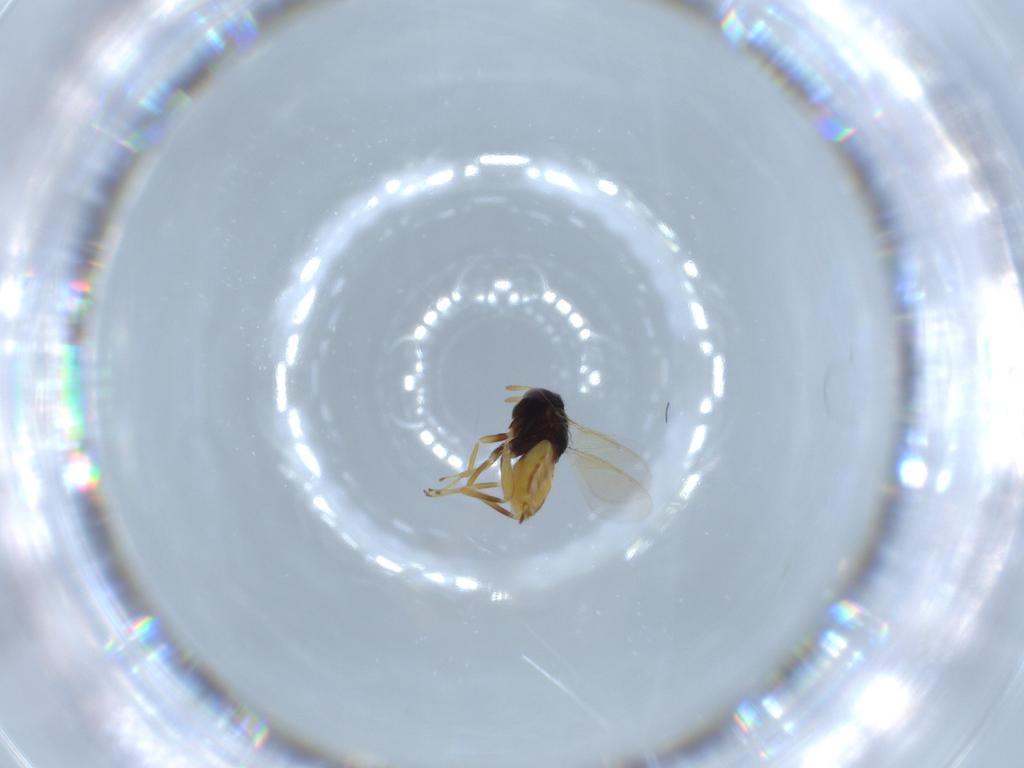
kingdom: Animalia
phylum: Arthropoda
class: Insecta
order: Hymenoptera
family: Aphelinidae
